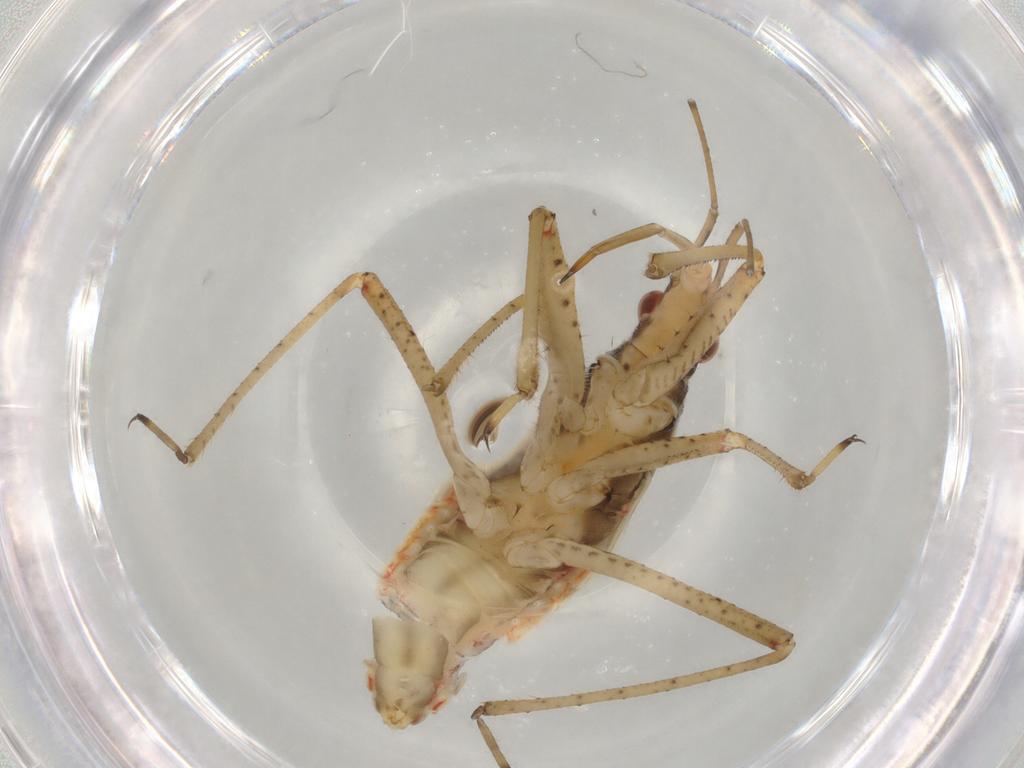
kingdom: Animalia
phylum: Arthropoda
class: Insecta
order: Hemiptera
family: Nabidae
